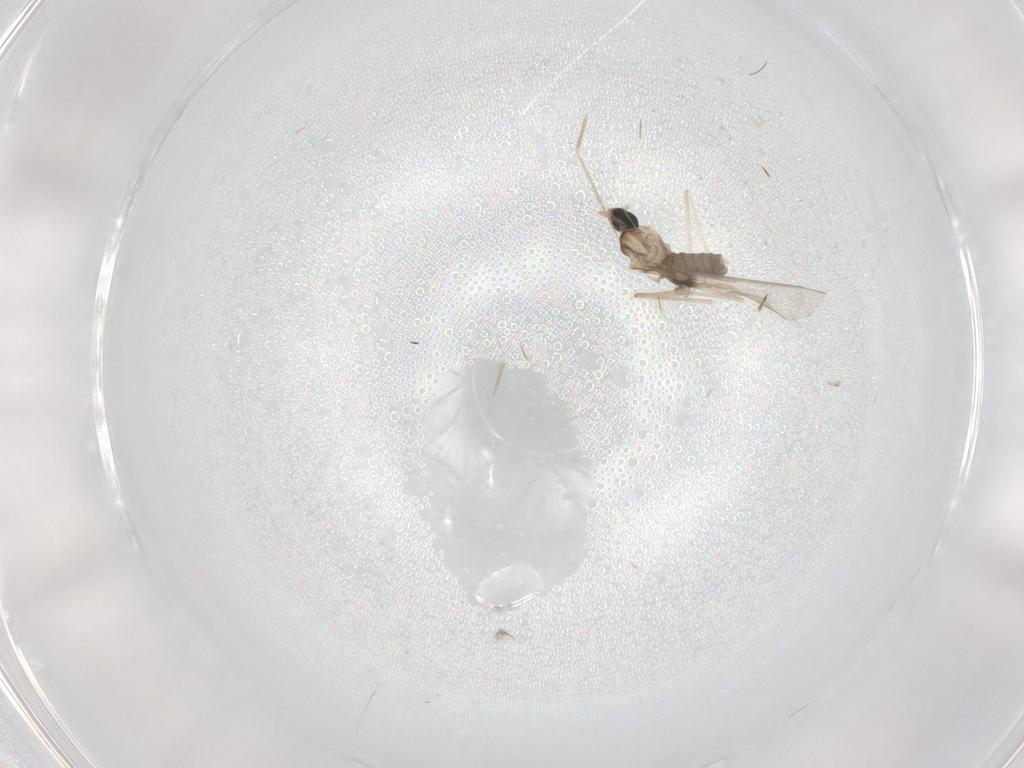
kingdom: Animalia
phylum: Arthropoda
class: Insecta
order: Diptera
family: Cecidomyiidae
